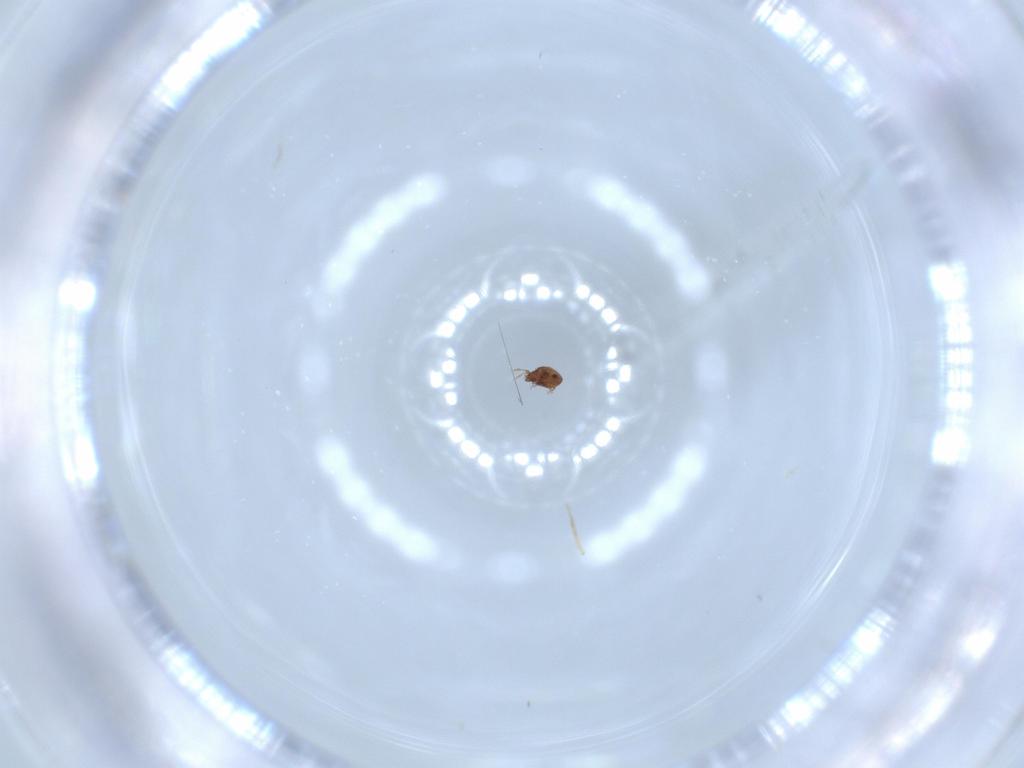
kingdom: Animalia
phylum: Arthropoda
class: Arachnida
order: Sarcoptiformes
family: Dendroeremaeidae
